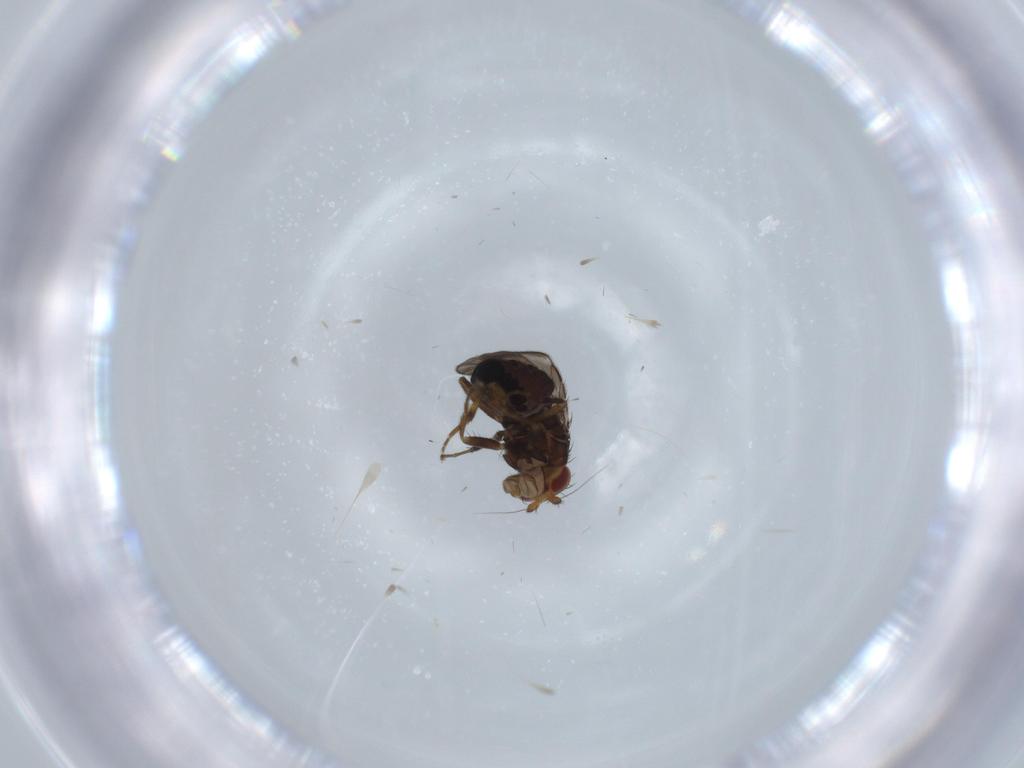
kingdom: Animalia
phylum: Arthropoda
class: Insecta
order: Diptera
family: Sphaeroceridae
